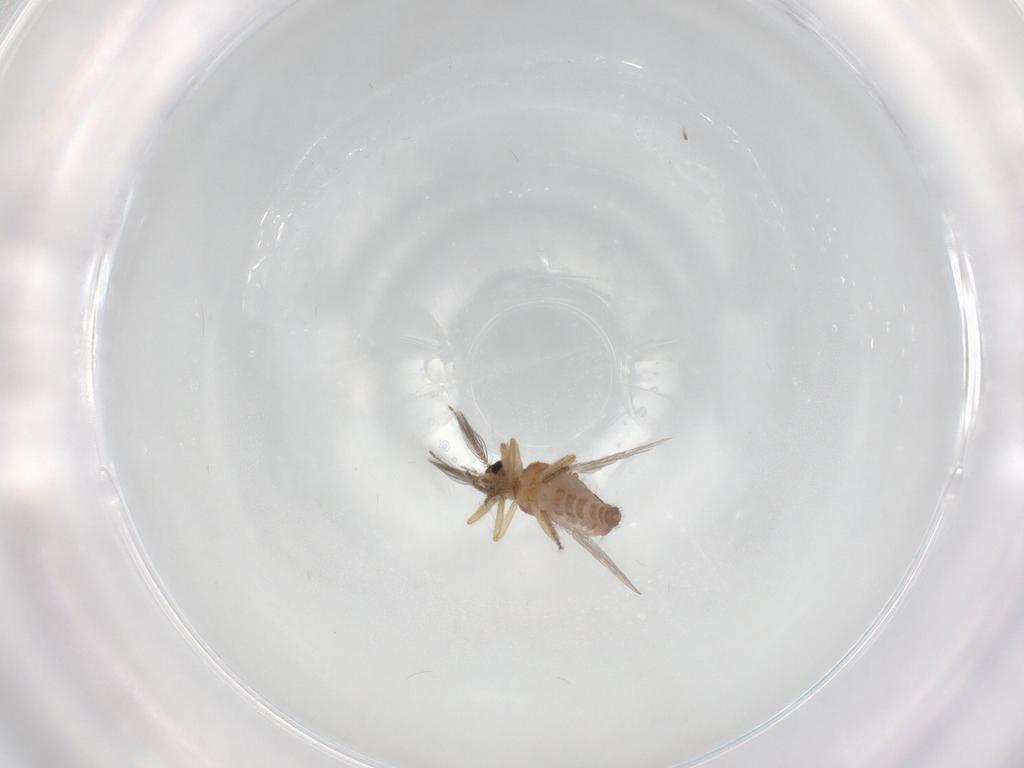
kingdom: Animalia
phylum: Arthropoda
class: Insecta
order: Diptera
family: Ceratopogonidae
